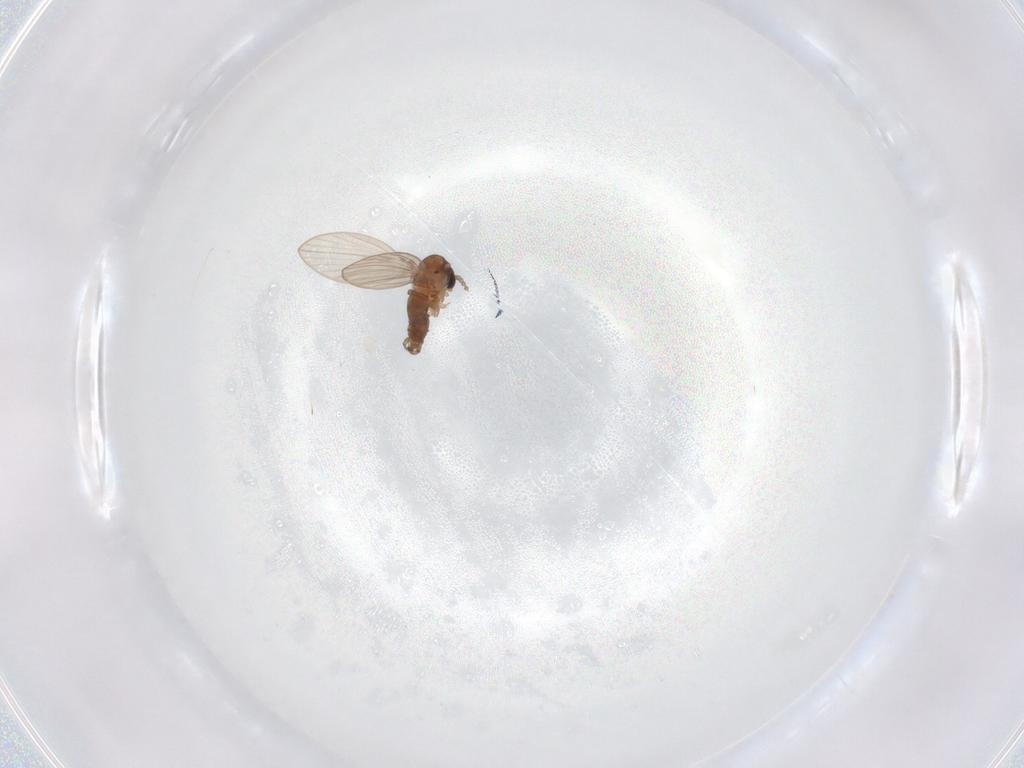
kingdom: Animalia
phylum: Arthropoda
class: Insecta
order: Diptera
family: Psychodidae
